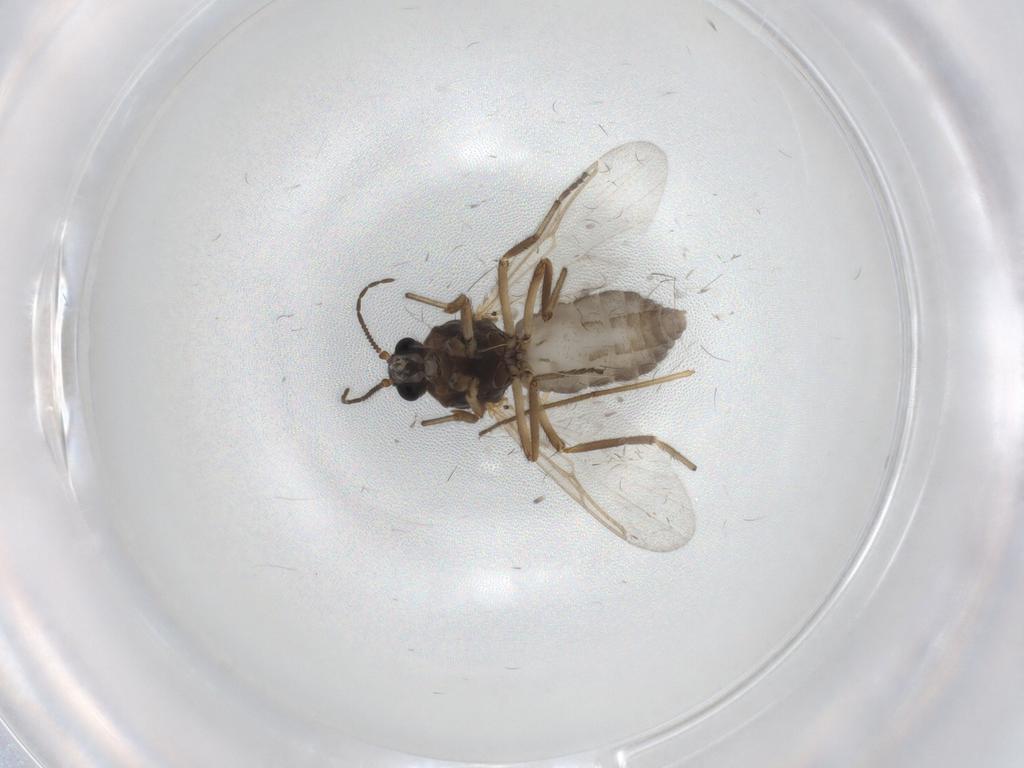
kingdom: Animalia
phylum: Arthropoda
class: Insecta
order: Diptera
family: Ceratopogonidae
